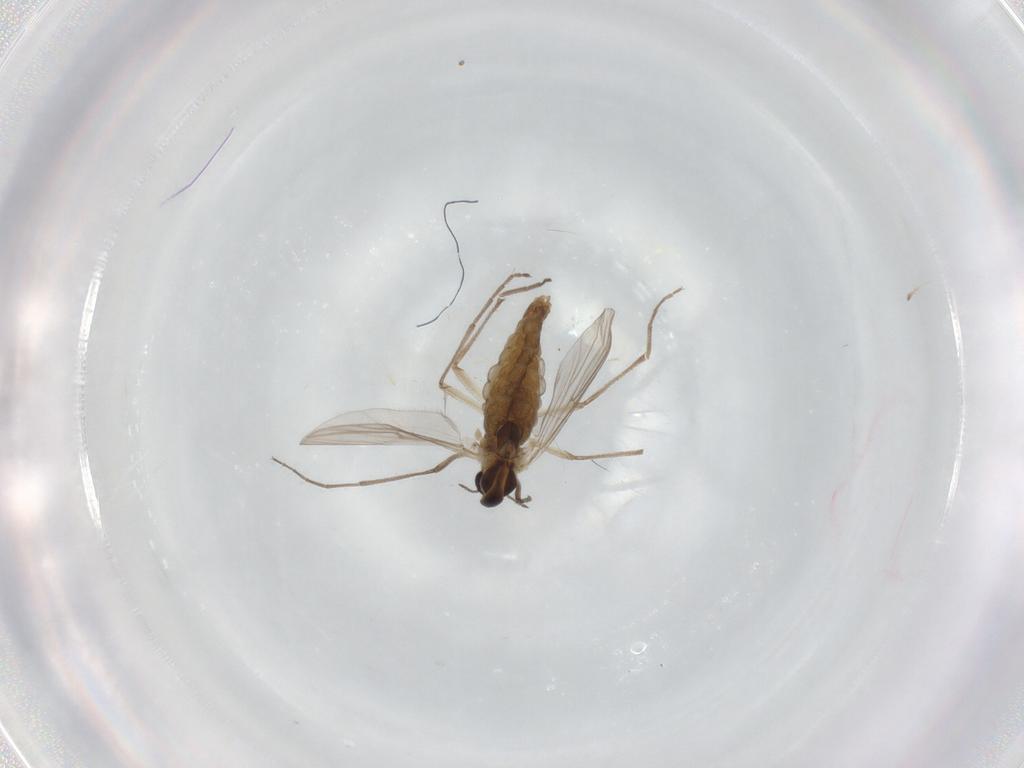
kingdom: Animalia
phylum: Arthropoda
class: Insecta
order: Diptera
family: Chironomidae
